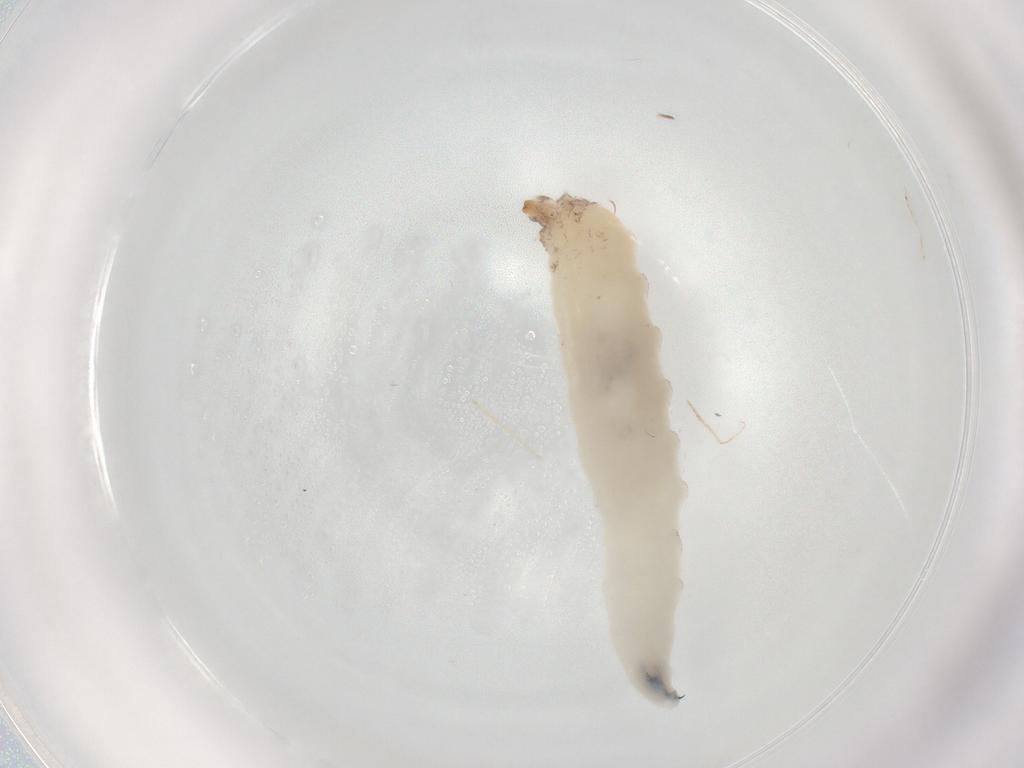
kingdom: Animalia
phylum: Arthropoda
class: Insecta
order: Diptera
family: Drosophilidae
